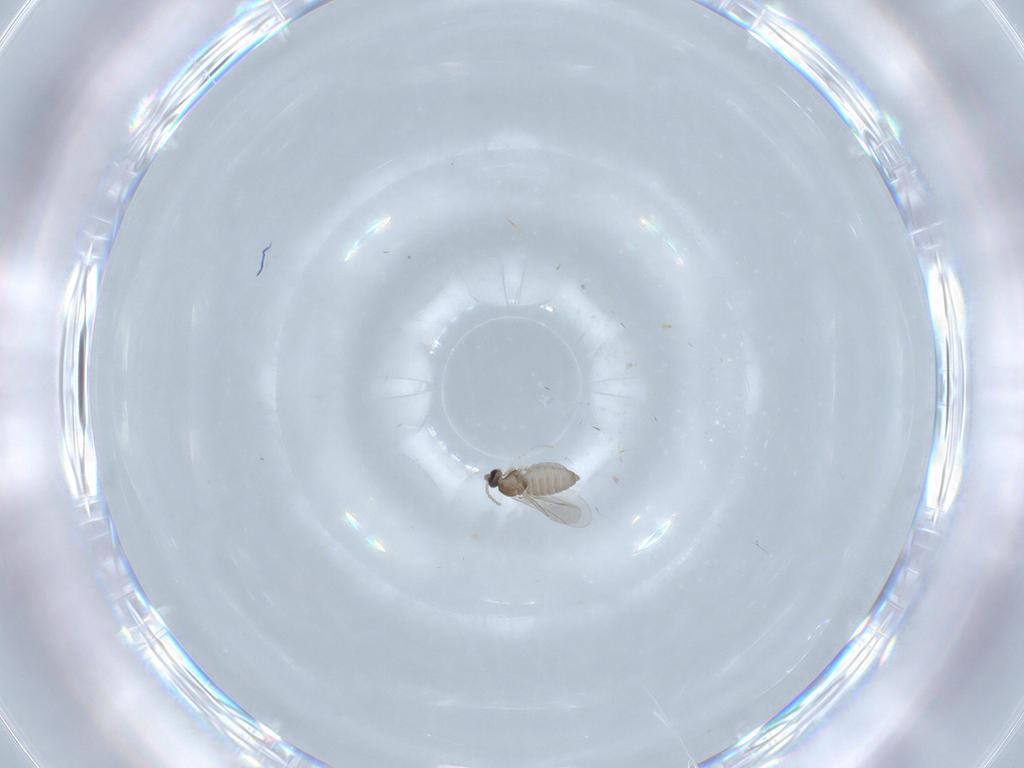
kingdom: Animalia
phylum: Arthropoda
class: Insecta
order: Diptera
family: Cecidomyiidae
